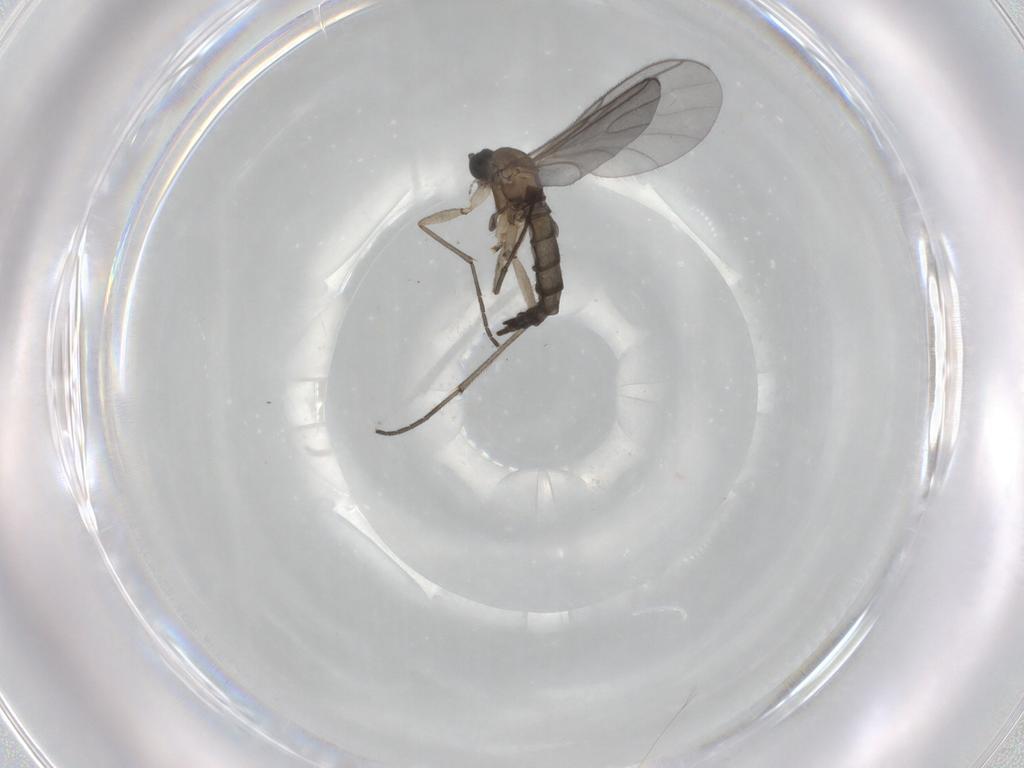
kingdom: Animalia
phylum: Arthropoda
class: Insecta
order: Diptera
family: Sciaridae
